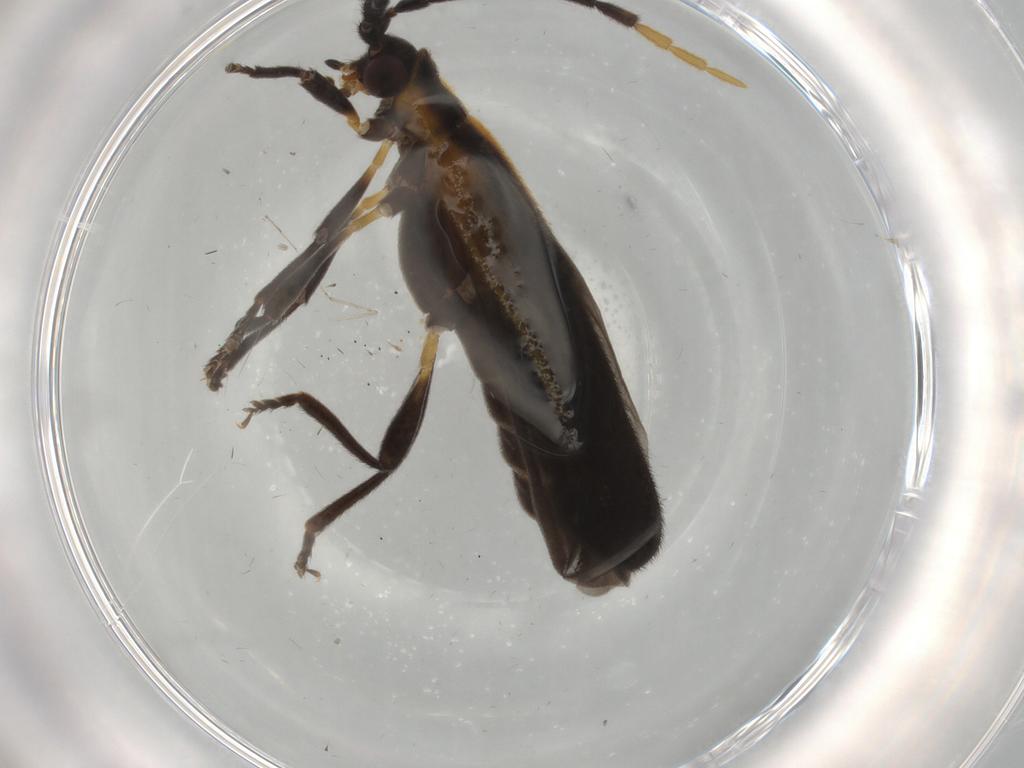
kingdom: Animalia
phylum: Arthropoda
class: Insecta
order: Coleoptera
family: Lycidae
